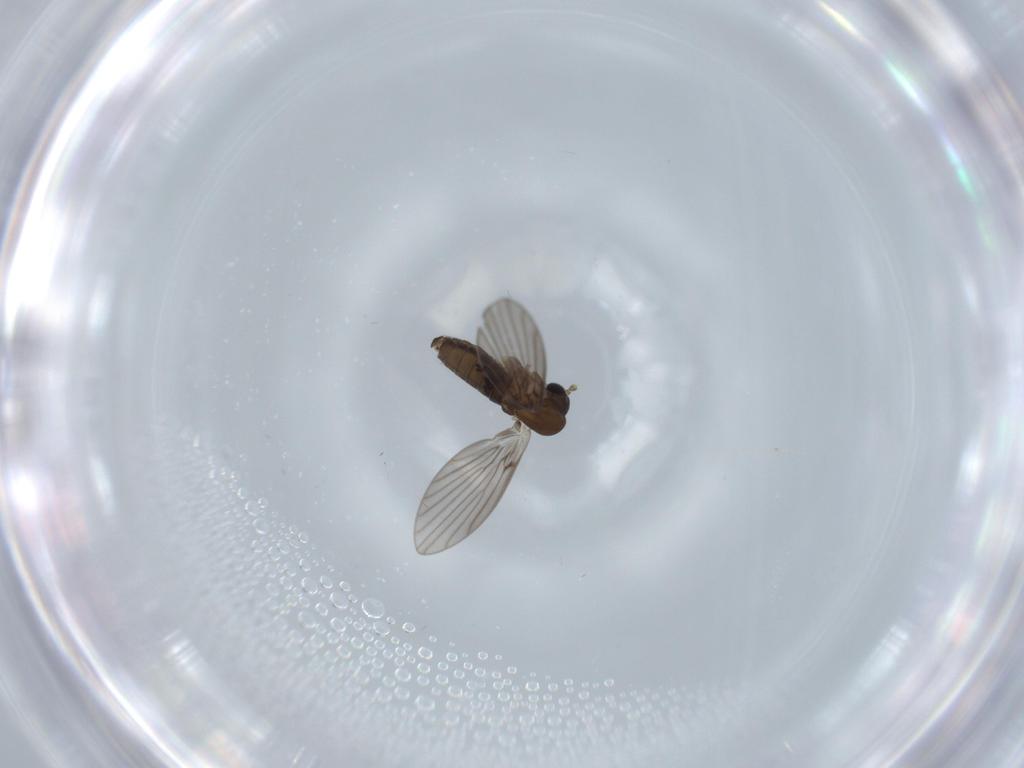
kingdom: Animalia
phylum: Arthropoda
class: Insecta
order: Diptera
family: Psychodidae
